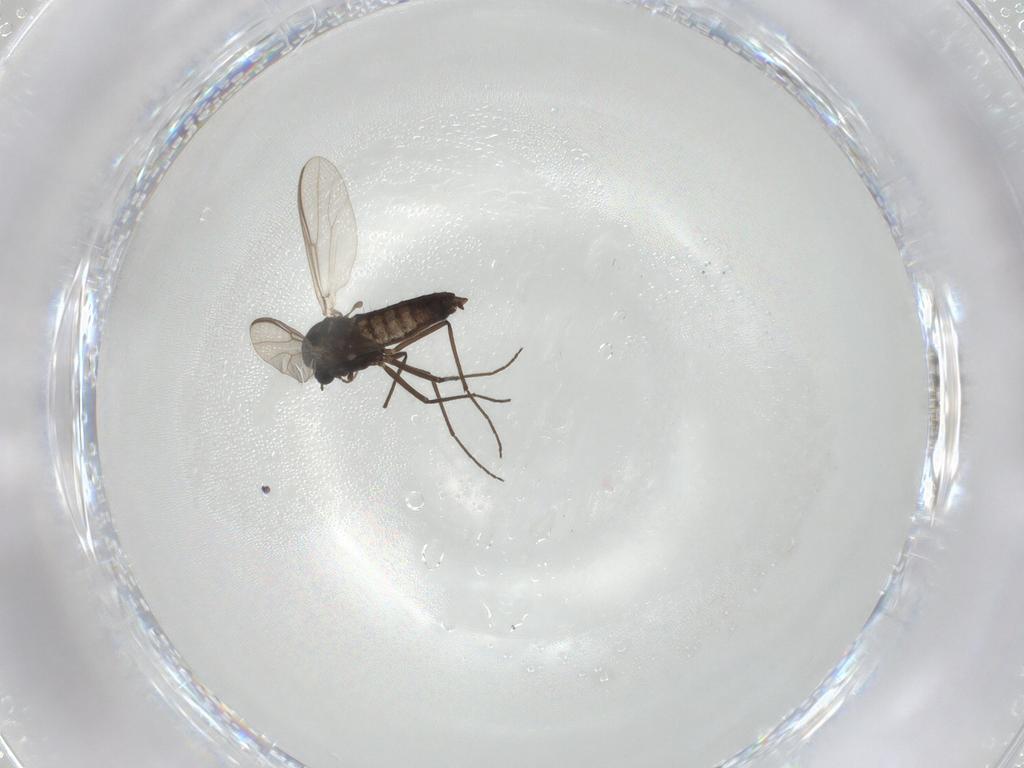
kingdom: Animalia
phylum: Arthropoda
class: Insecta
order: Diptera
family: Chironomidae
